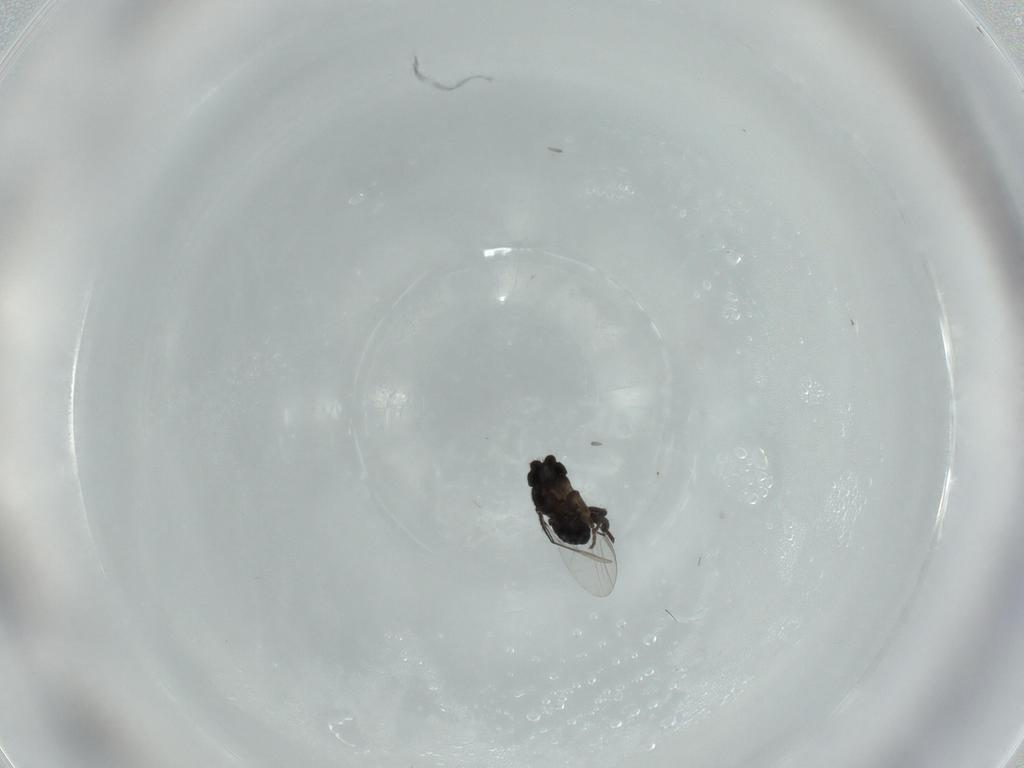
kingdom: Animalia
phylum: Arthropoda
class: Insecta
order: Diptera
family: Phoridae
